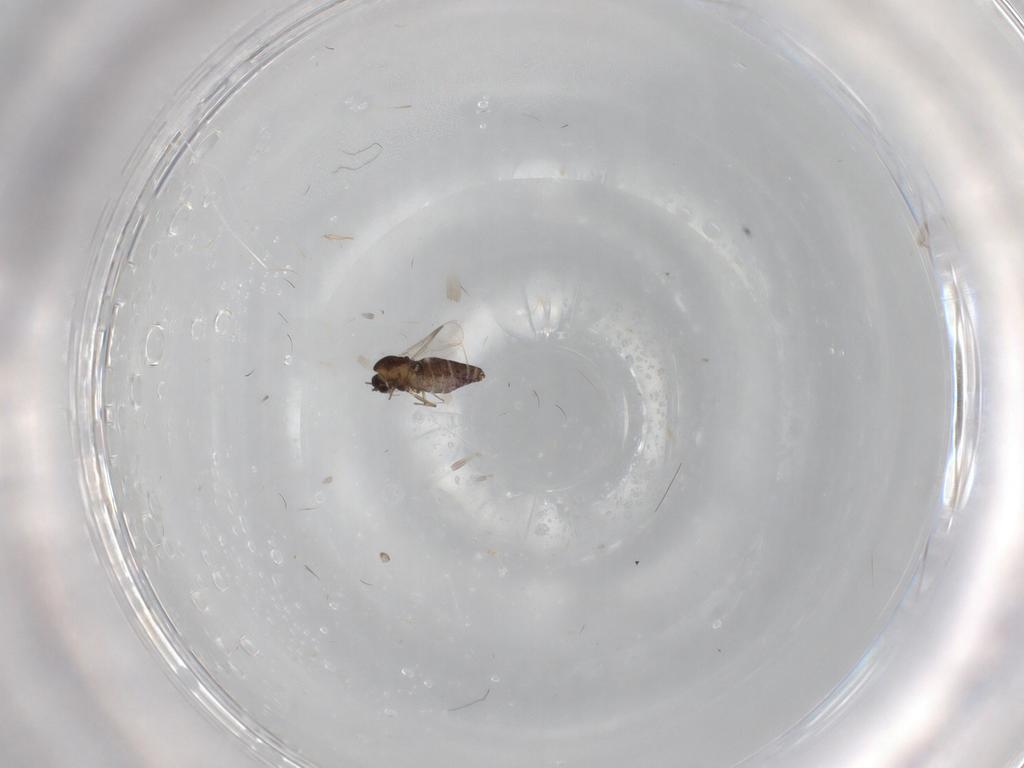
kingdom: Animalia
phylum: Arthropoda
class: Insecta
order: Diptera
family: Chironomidae
